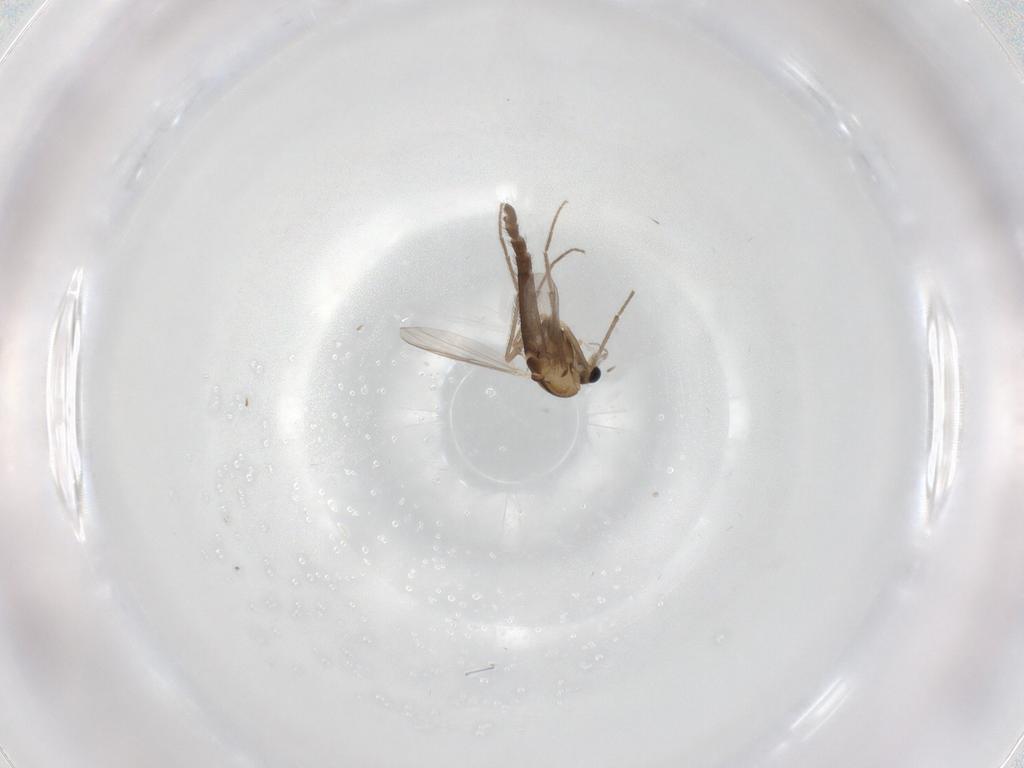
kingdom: Animalia
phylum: Arthropoda
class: Insecta
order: Diptera
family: Chironomidae
